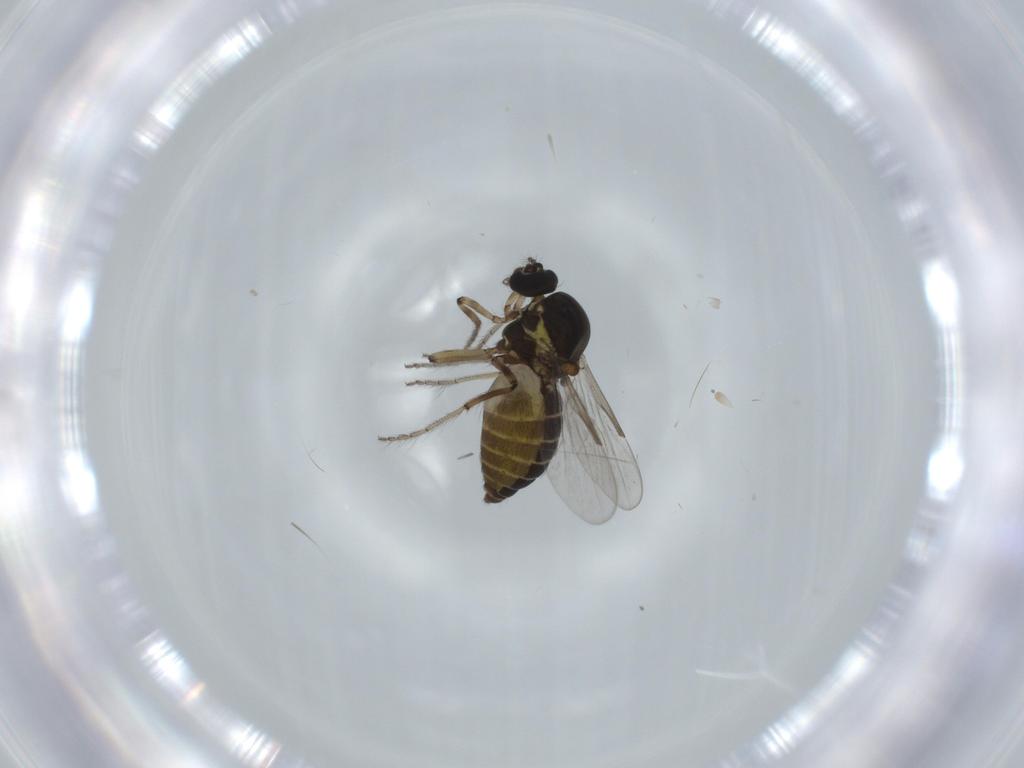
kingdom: Animalia
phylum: Arthropoda
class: Insecta
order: Diptera
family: Ceratopogonidae
